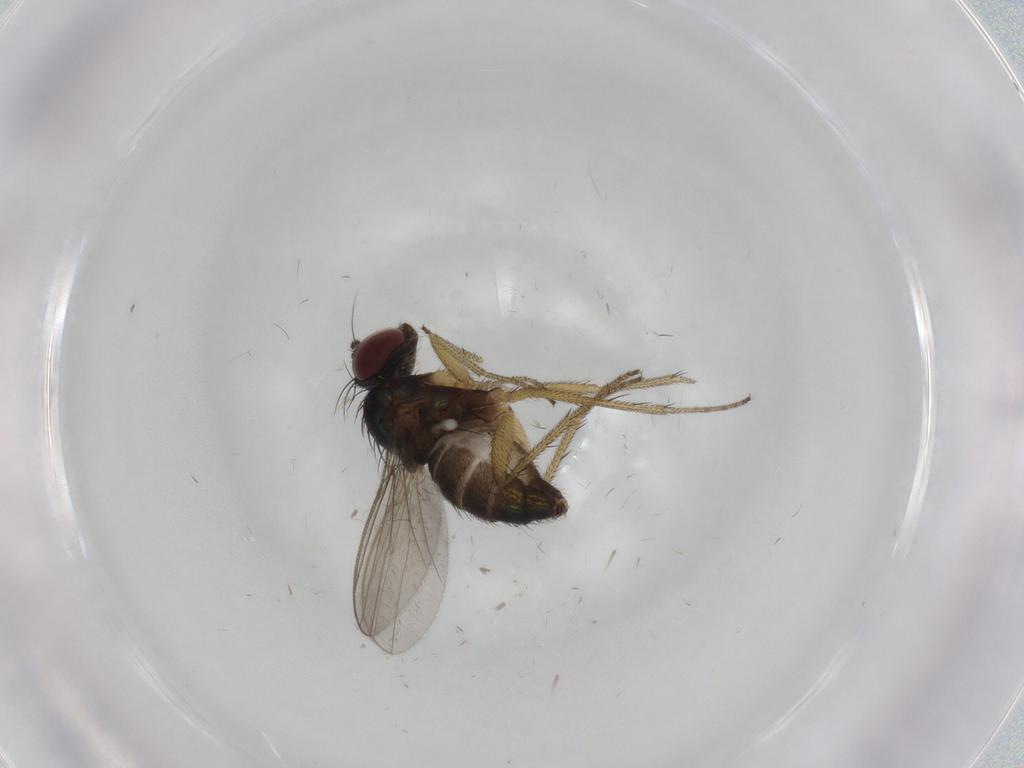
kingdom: Animalia
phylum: Arthropoda
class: Insecta
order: Diptera
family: Dolichopodidae
